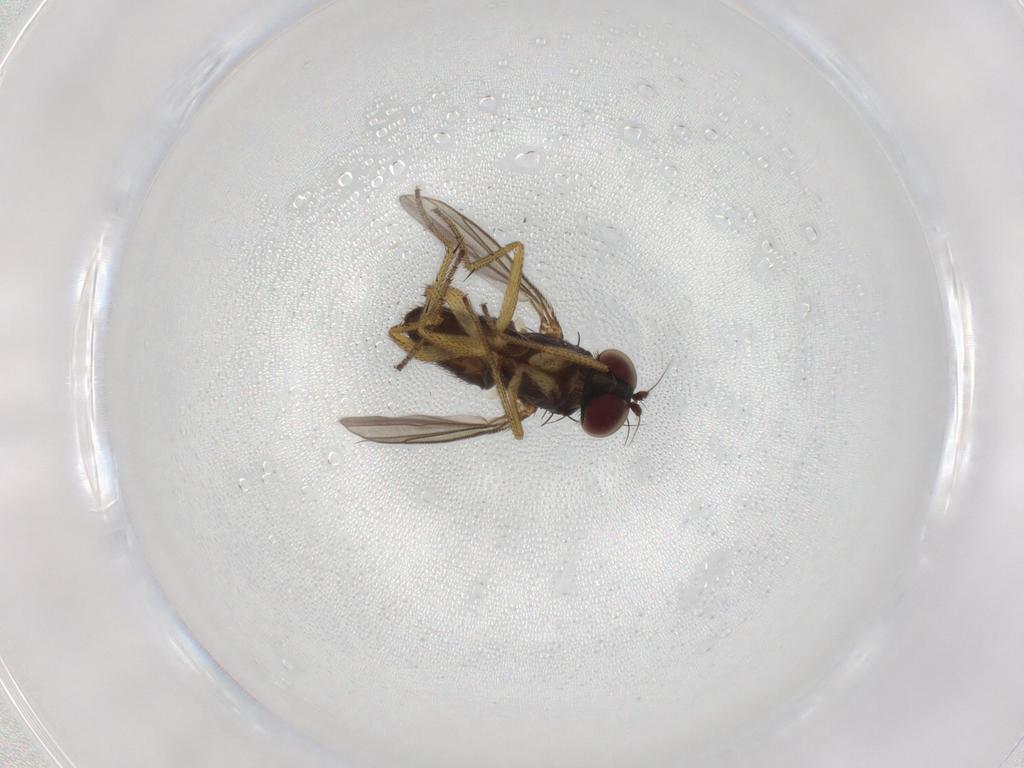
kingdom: Animalia
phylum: Arthropoda
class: Insecta
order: Diptera
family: Dolichopodidae
